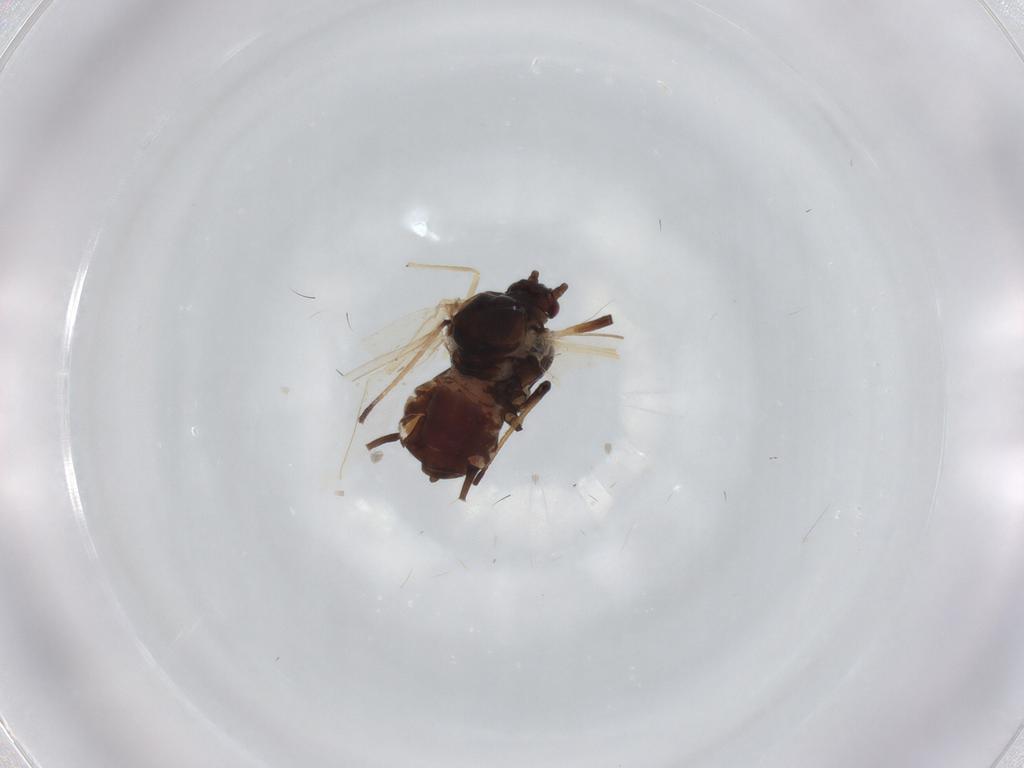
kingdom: Animalia
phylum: Arthropoda
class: Insecta
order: Hemiptera
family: Aphididae
